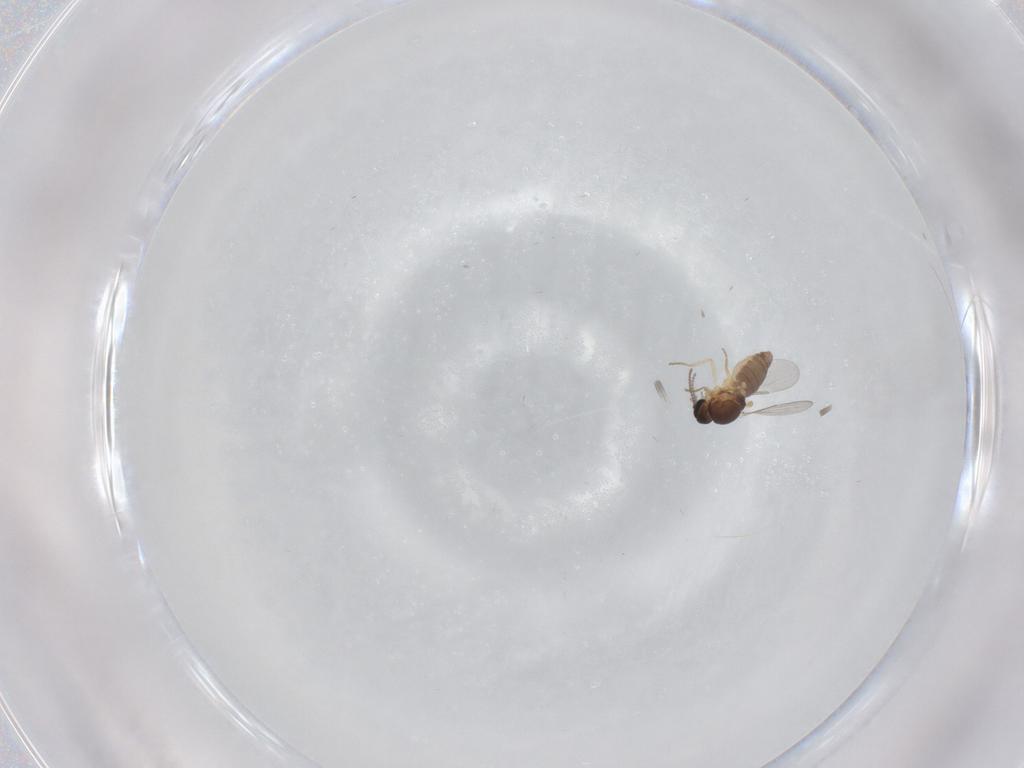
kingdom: Animalia
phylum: Arthropoda
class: Insecta
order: Diptera
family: Ceratopogonidae
